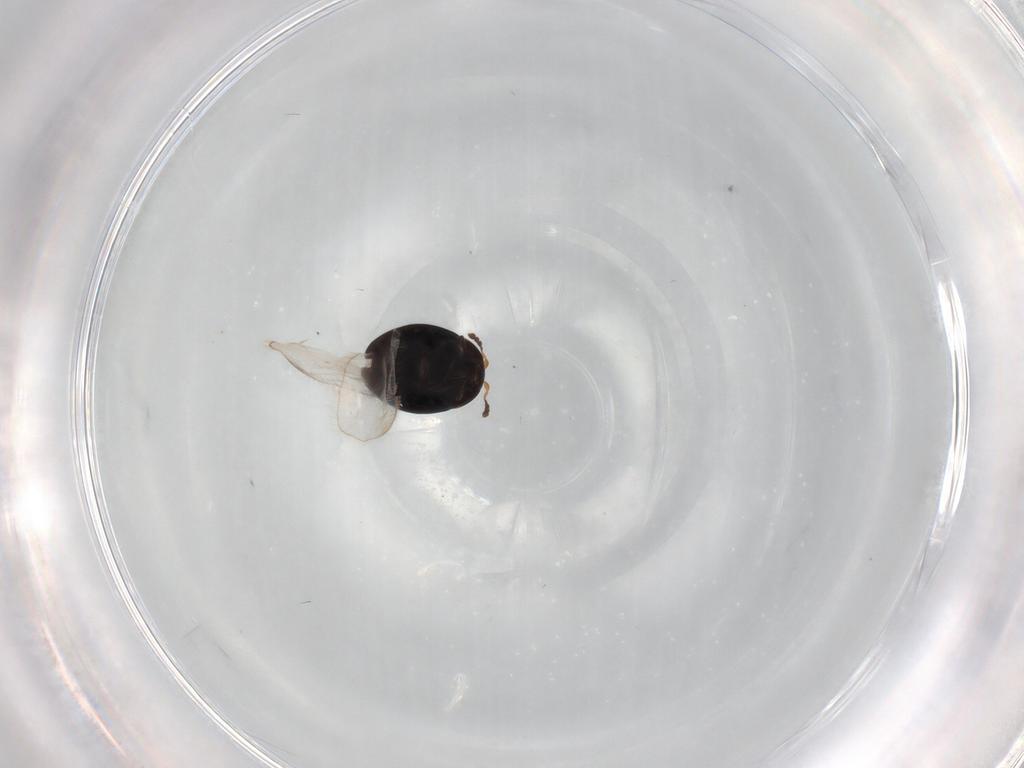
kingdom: Animalia
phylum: Arthropoda
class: Insecta
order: Coleoptera
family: Corylophidae
